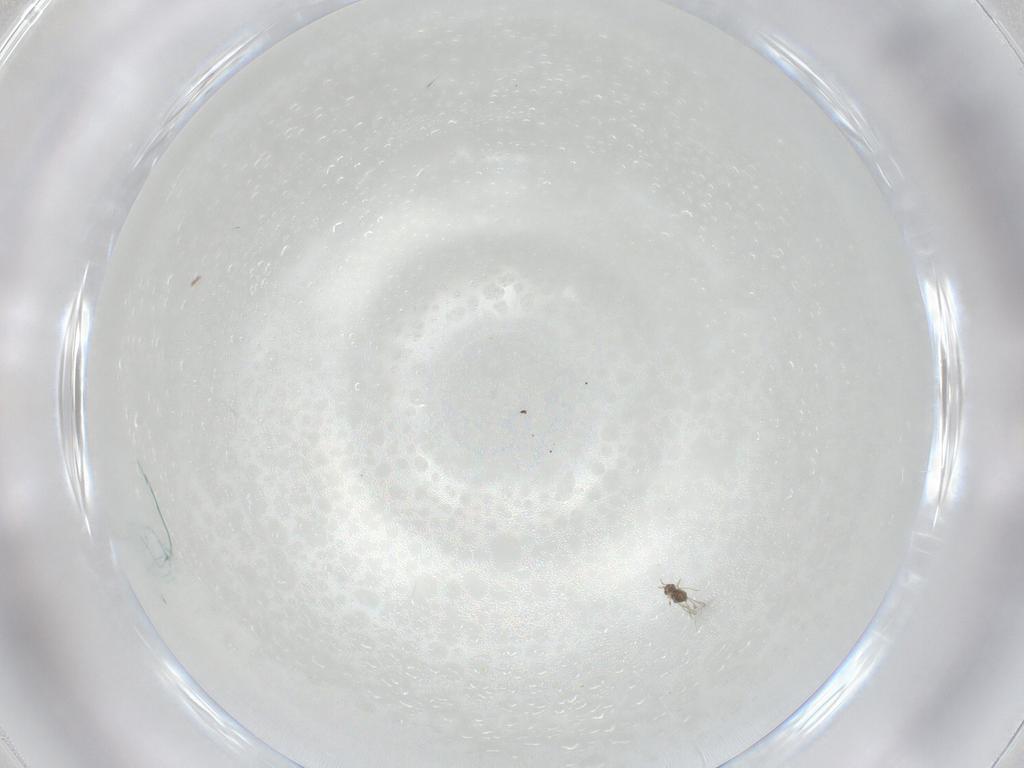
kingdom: Animalia
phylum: Arthropoda
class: Insecta
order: Hymenoptera
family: Mymaridae
